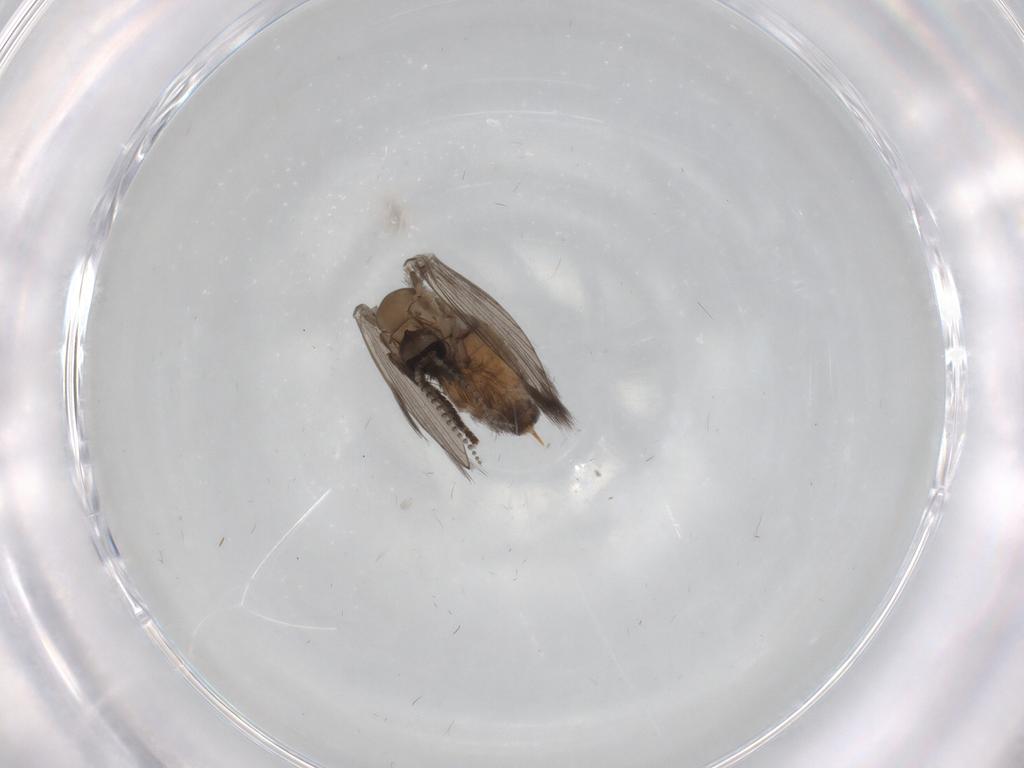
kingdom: Animalia
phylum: Arthropoda
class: Insecta
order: Diptera
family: Chironomidae
